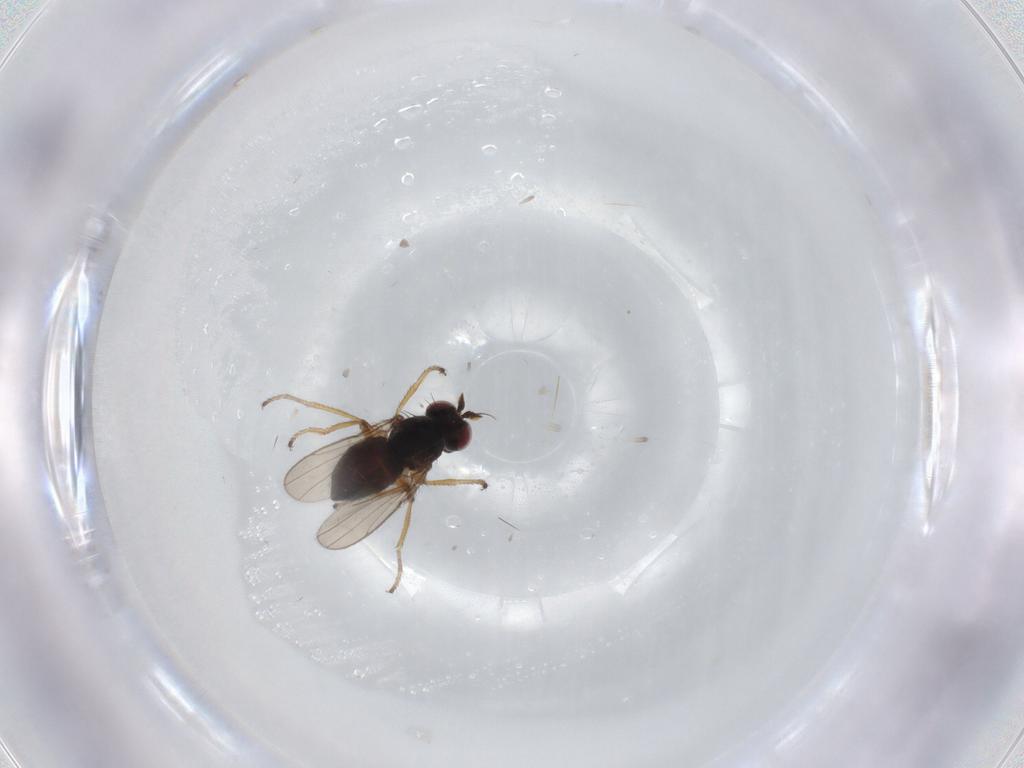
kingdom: Animalia
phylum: Arthropoda
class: Insecta
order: Diptera
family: Ephydridae
